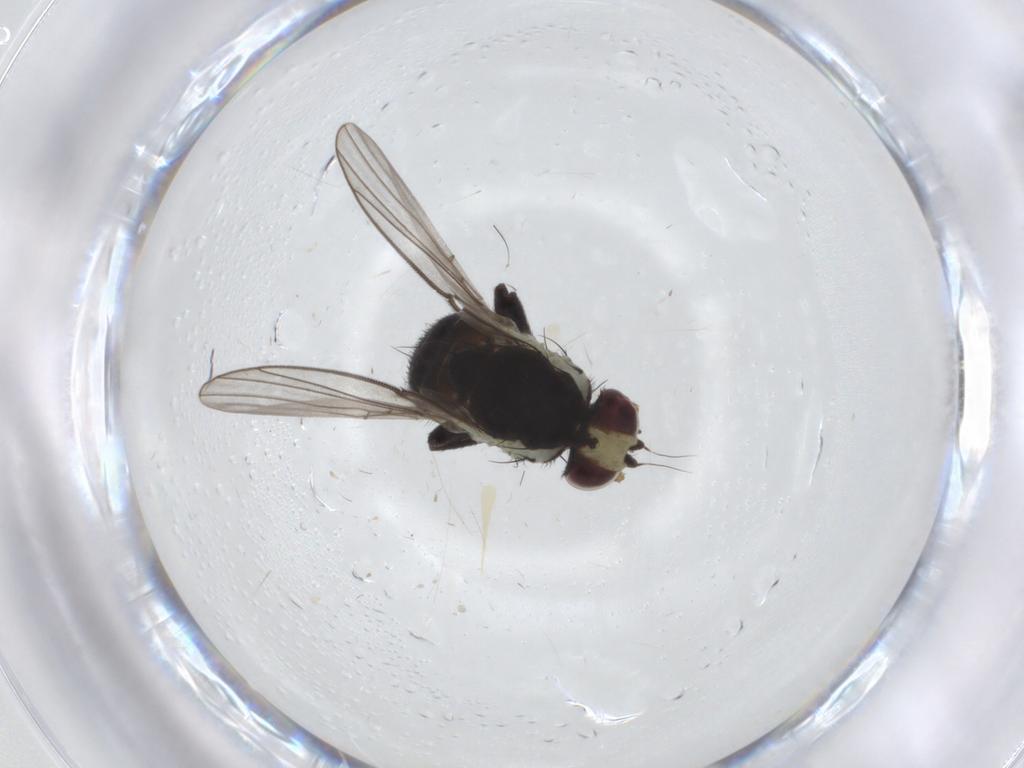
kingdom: Animalia
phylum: Arthropoda
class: Insecta
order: Diptera
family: Agromyzidae
